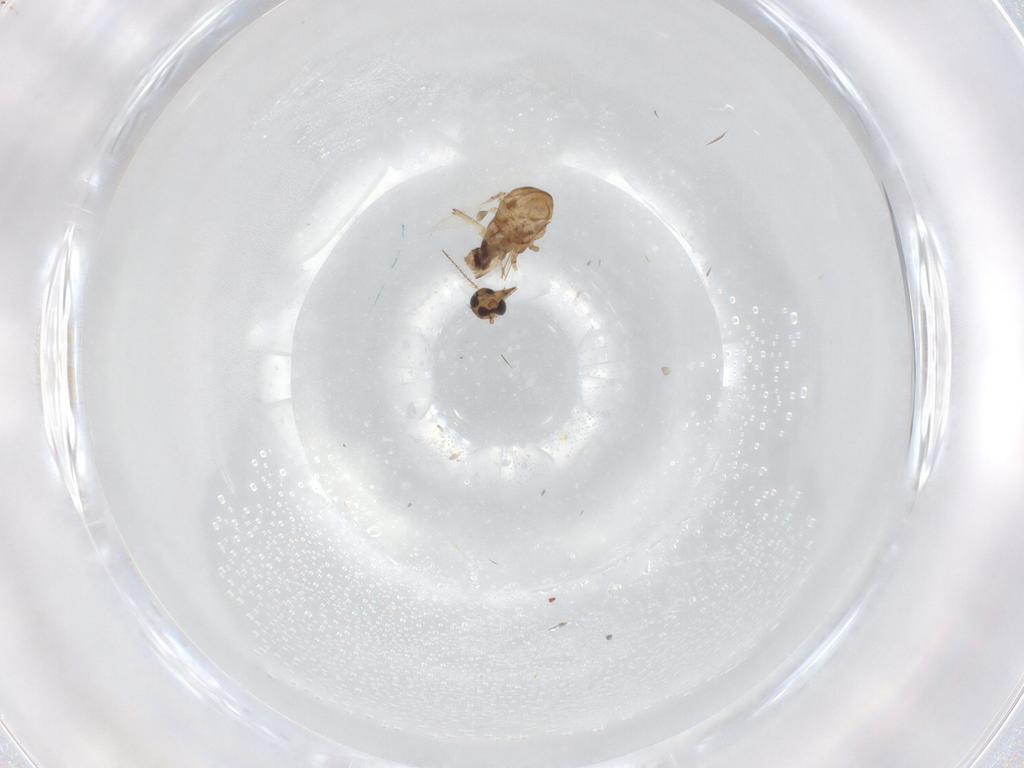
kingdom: Animalia
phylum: Arthropoda
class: Insecta
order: Diptera
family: Ceratopogonidae
